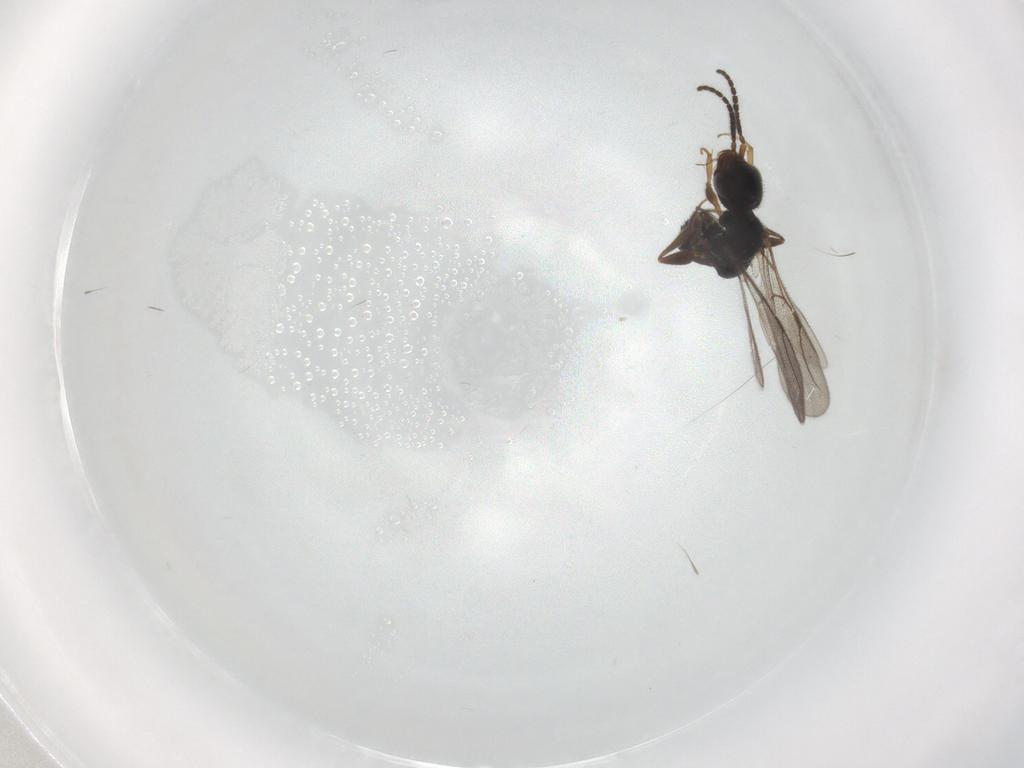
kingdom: Animalia
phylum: Arthropoda
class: Insecta
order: Hymenoptera
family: Bethylidae
